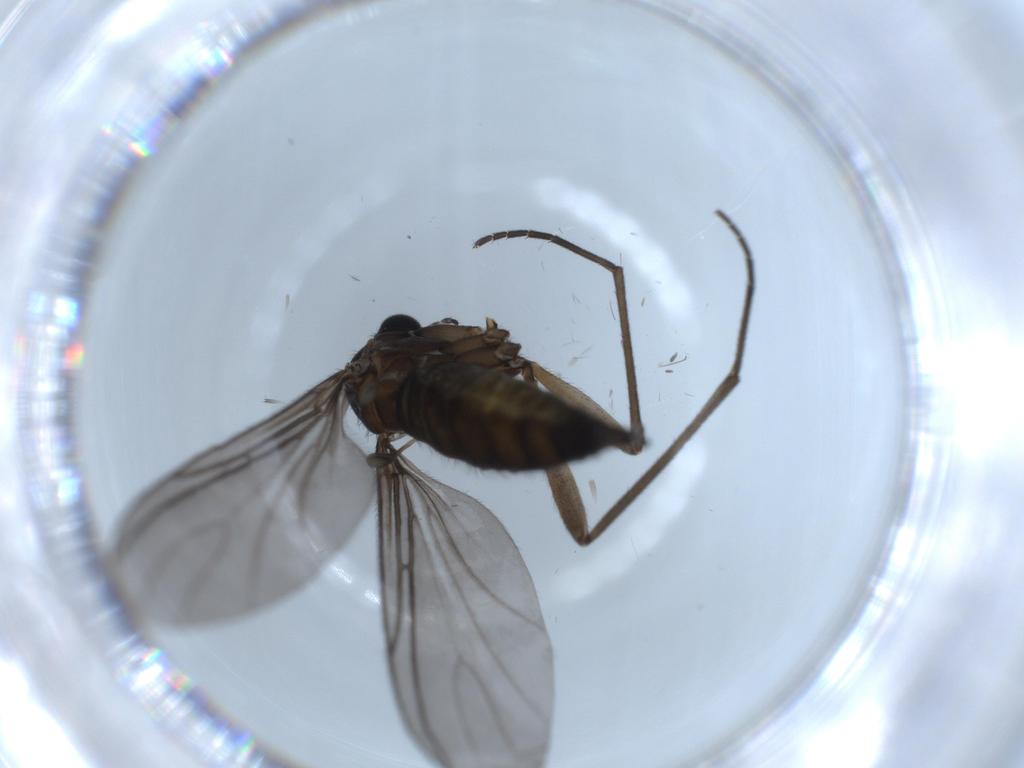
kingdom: Animalia
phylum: Arthropoda
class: Insecta
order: Diptera
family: Sciaridae
